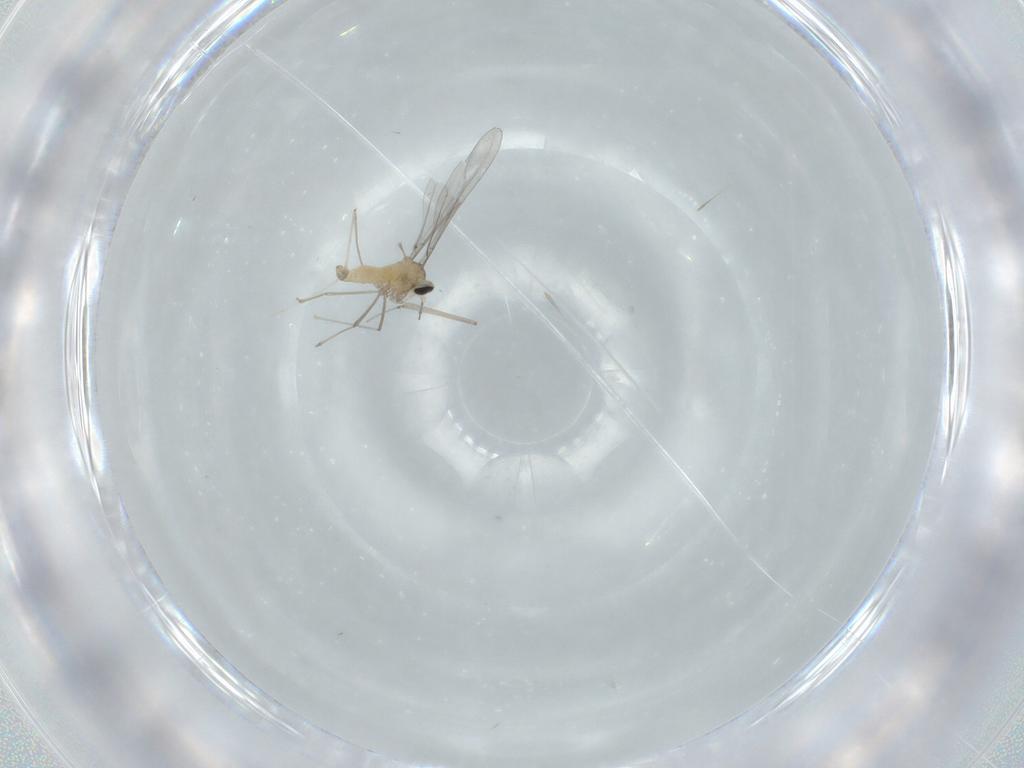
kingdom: Animalia
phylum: Arthropoda
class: Insecta
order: Diptera
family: Cecidomyiidae
